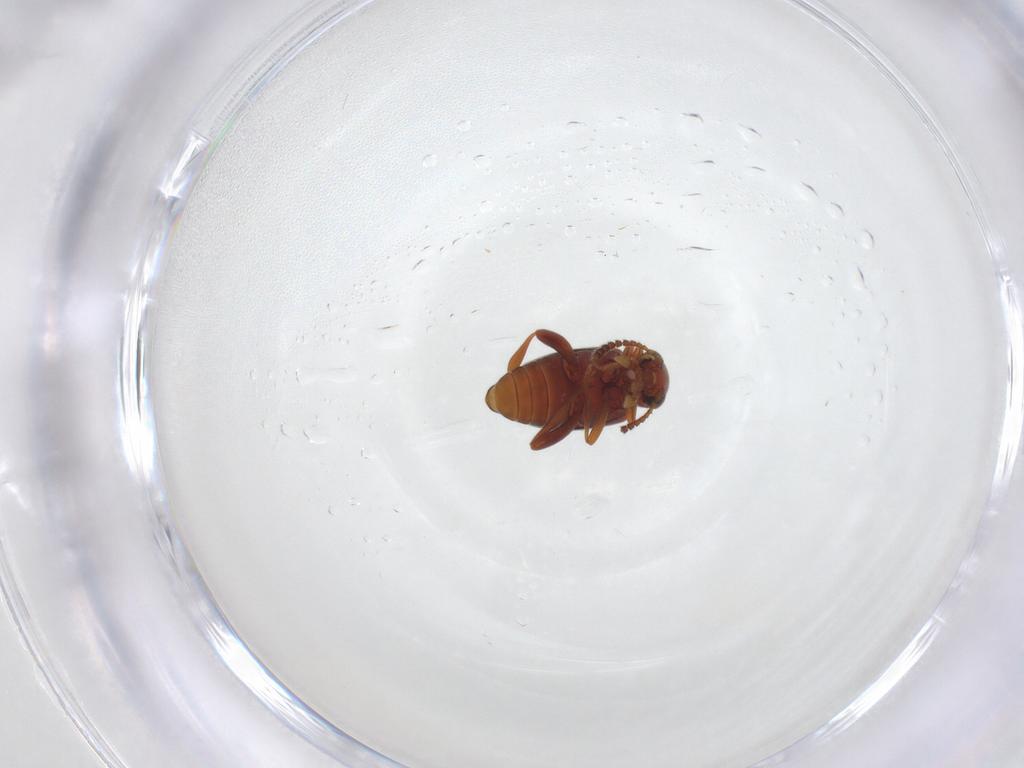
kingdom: Animalia
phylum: Arthropoda
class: Insecta
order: Coleoptera
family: Aderidae
